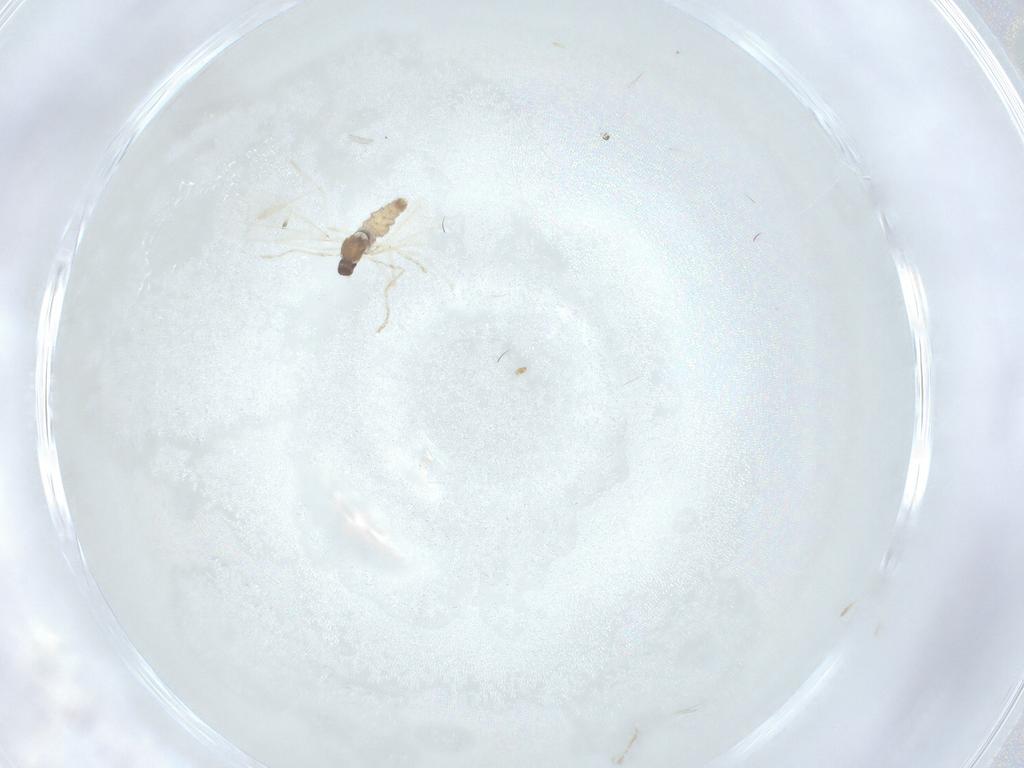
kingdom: Animalia
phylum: Arthropoda
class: Insecta
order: Diptera
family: Cecidomyiidae
